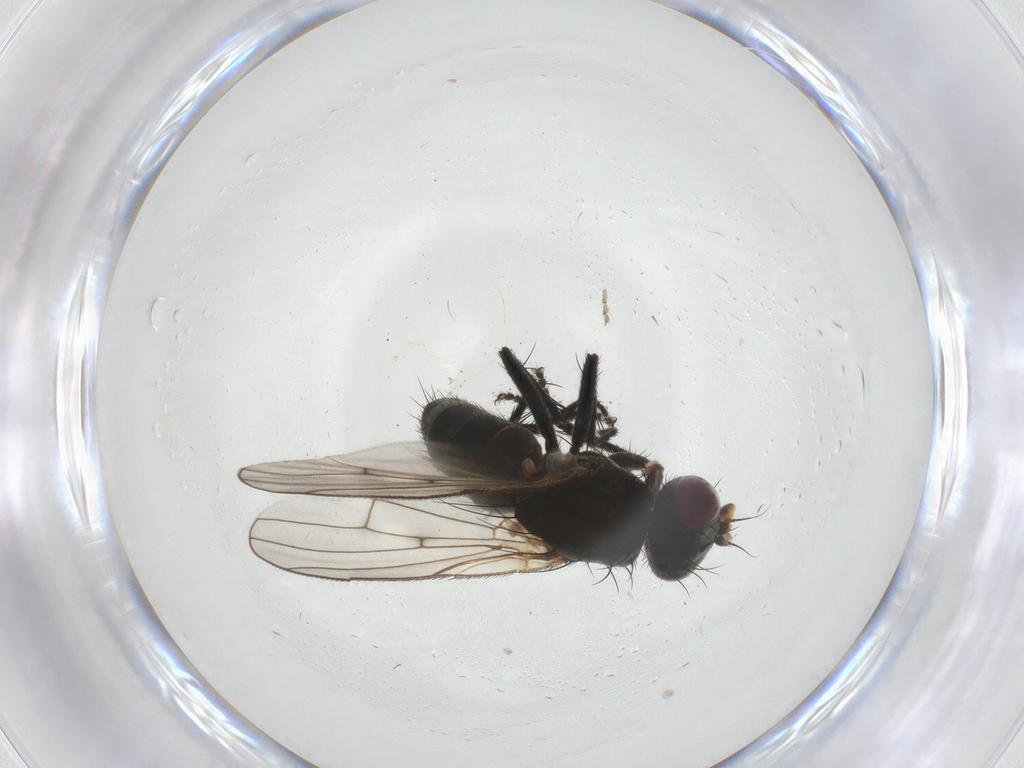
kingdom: Animalia
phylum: Arthropoda
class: Insecta
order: Diptera
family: Muscidae
